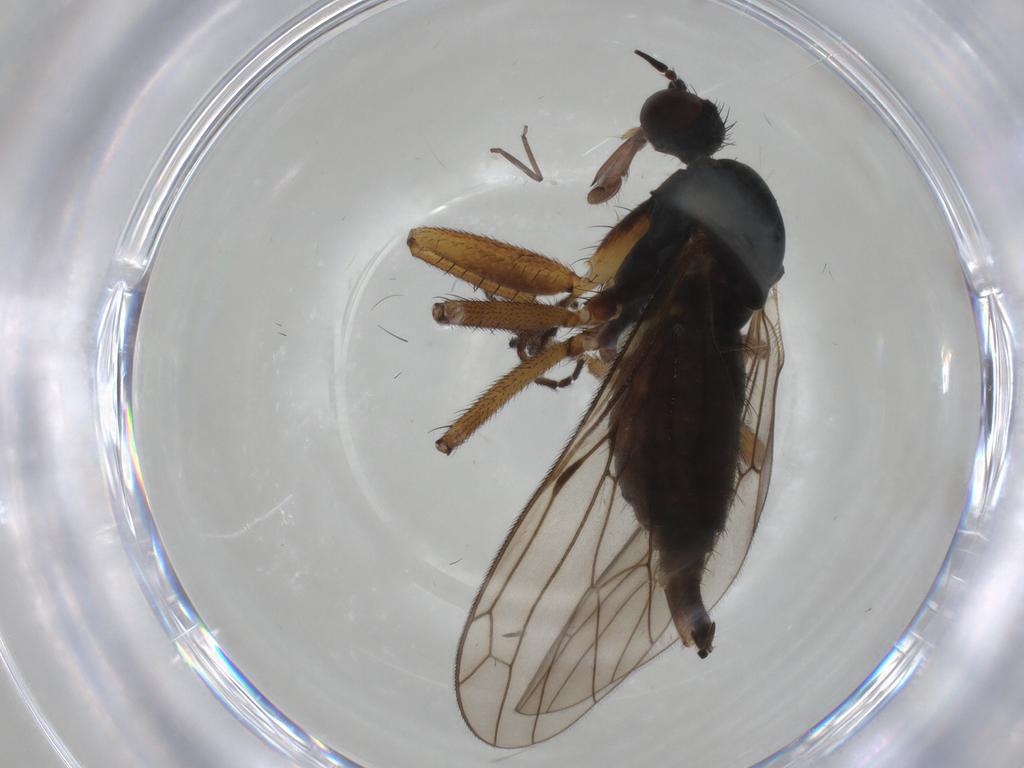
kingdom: Animalia
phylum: Arthropoda
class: Insecta
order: Diptera
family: Empididae
